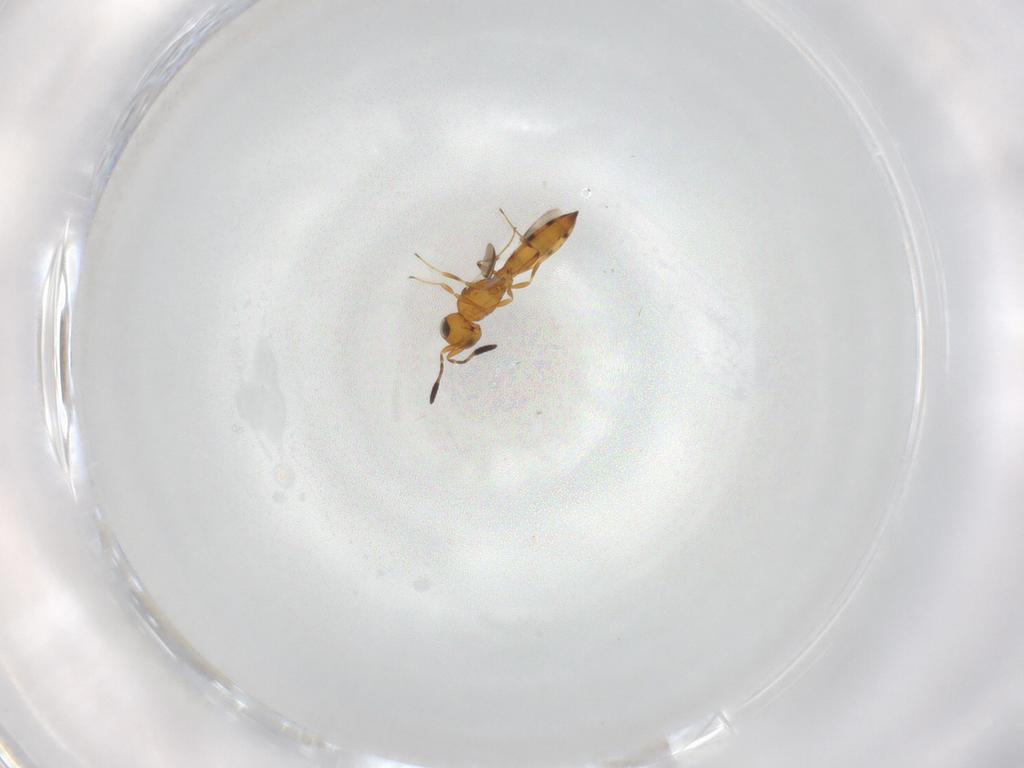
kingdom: Animalia
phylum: Arthropoda
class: Insecta
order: Hymenoptera
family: Scelionidae
